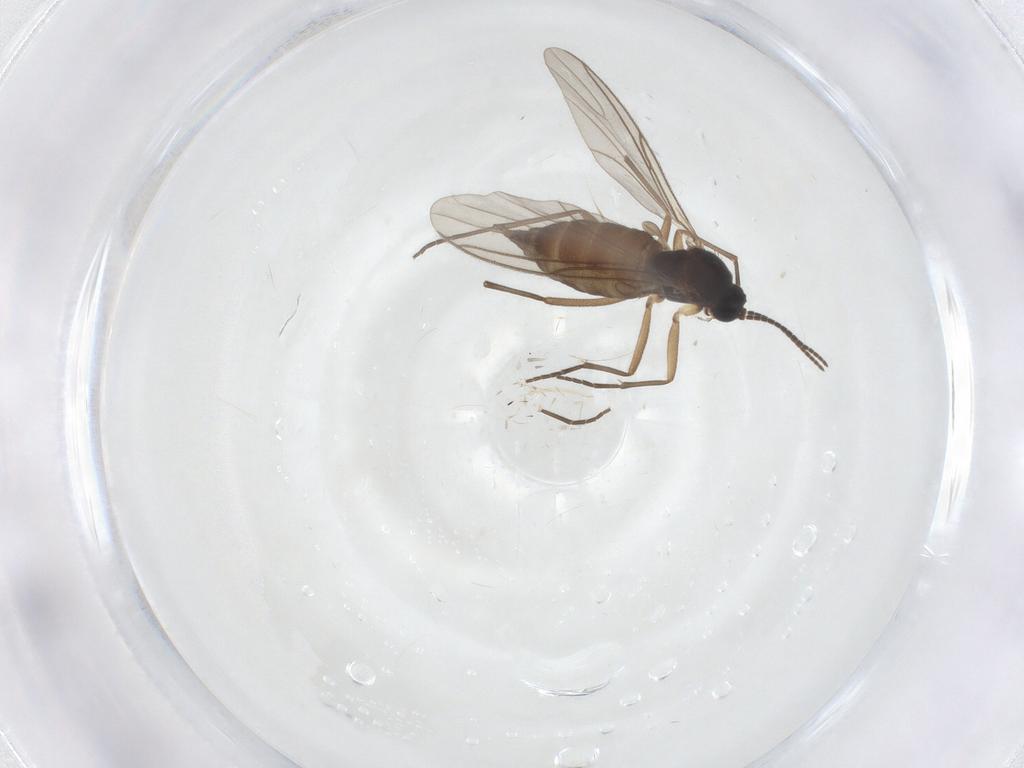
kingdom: Animalia
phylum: Arthropoda
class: Insecta
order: Diptera
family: Sciaridae
